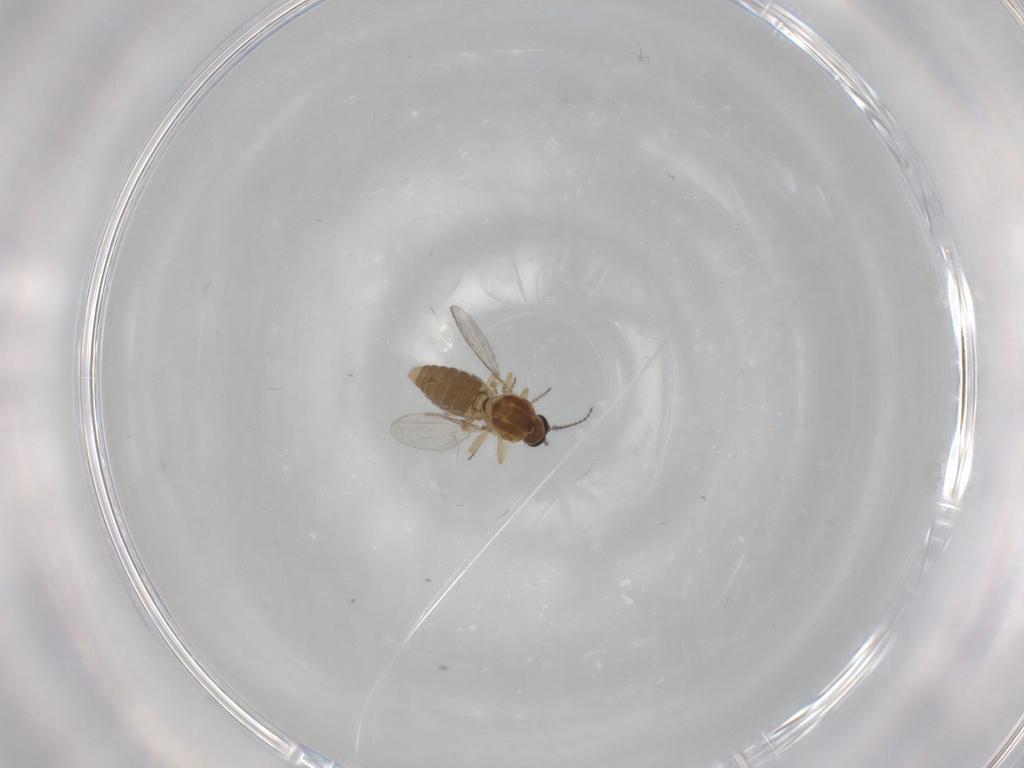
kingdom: Animalia
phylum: Arthropoda
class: Insecta
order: Diptera
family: Ceratopogonidae
